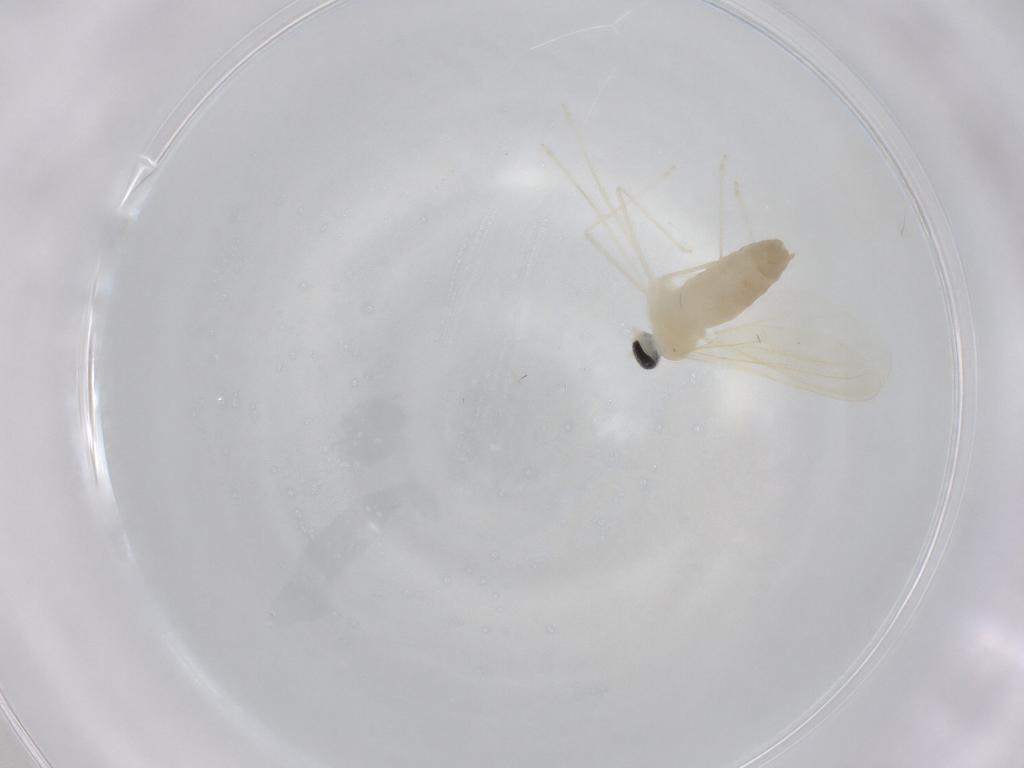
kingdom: Animalia
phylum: Arthropoda
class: Insecta
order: Diptera
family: Cecidomyiidae
